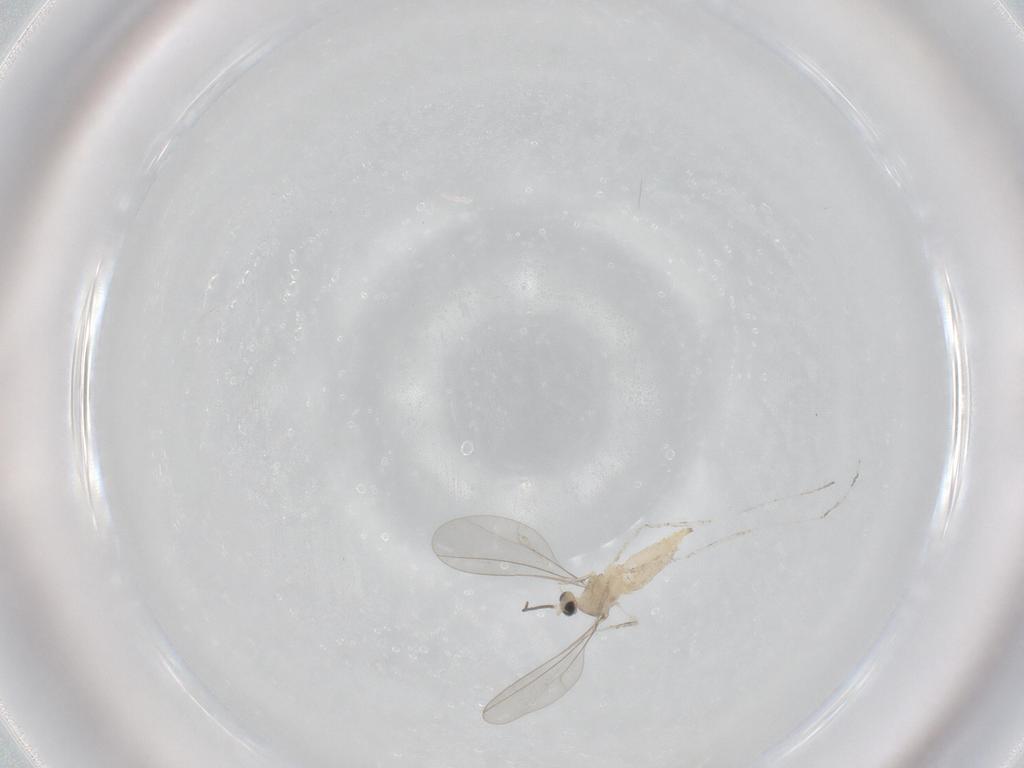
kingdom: Animalia
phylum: Arthropoda
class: Insecta
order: Diptera
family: Cecidomyiidae
